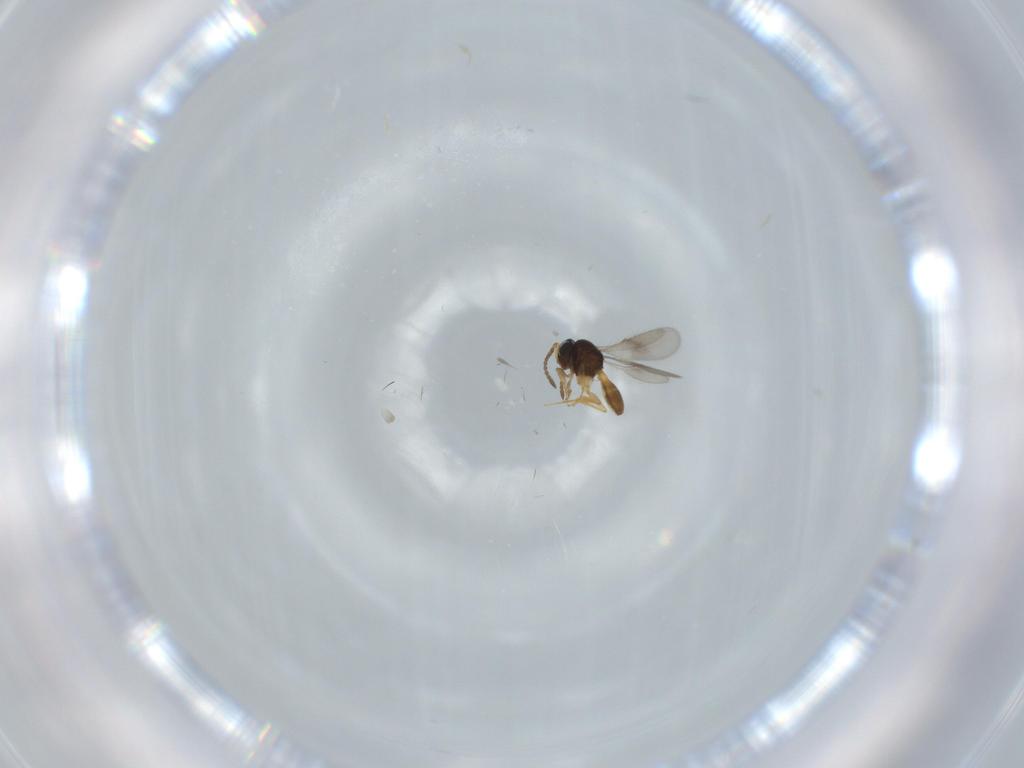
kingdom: Animalia
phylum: Arthropoda
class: Insecta
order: Hymenoptera
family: Scelionidae
